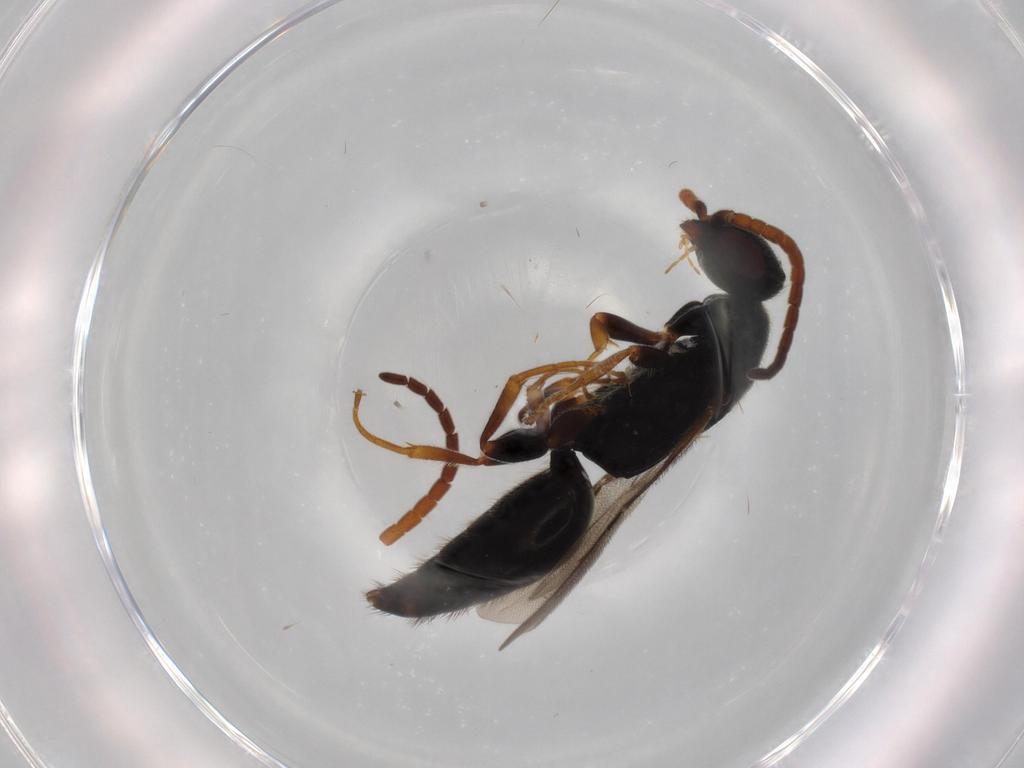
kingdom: Animalia
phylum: Arthropoda
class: Insecta
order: Hymenoptera
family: Bethylidae
